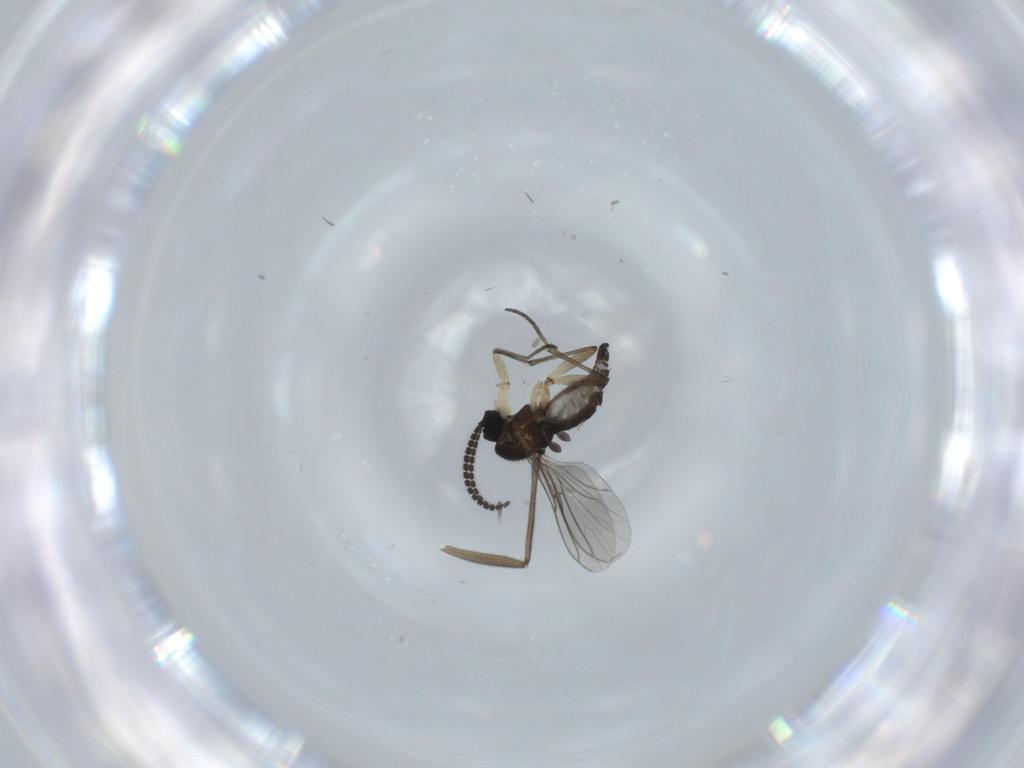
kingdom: Animalia
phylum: Arthropoda
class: Insecta
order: Diptera
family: Sciaridae
